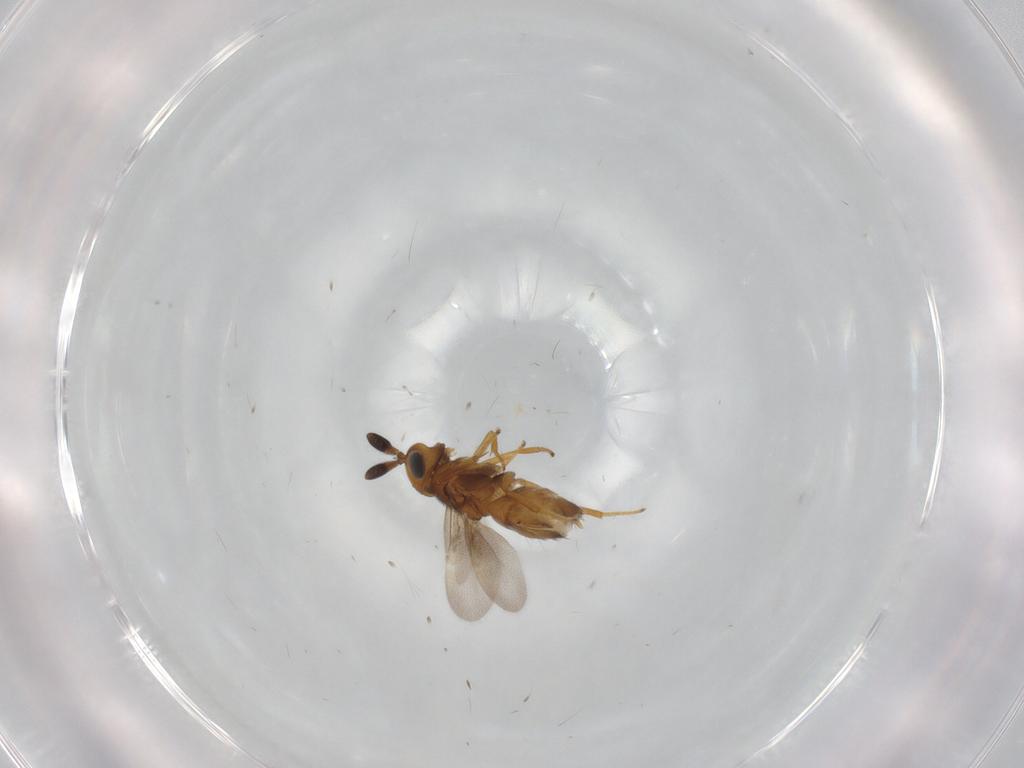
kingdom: Animalia
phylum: Arthropoda
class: Insecta
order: Hymenoptera
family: Encyrtidae
